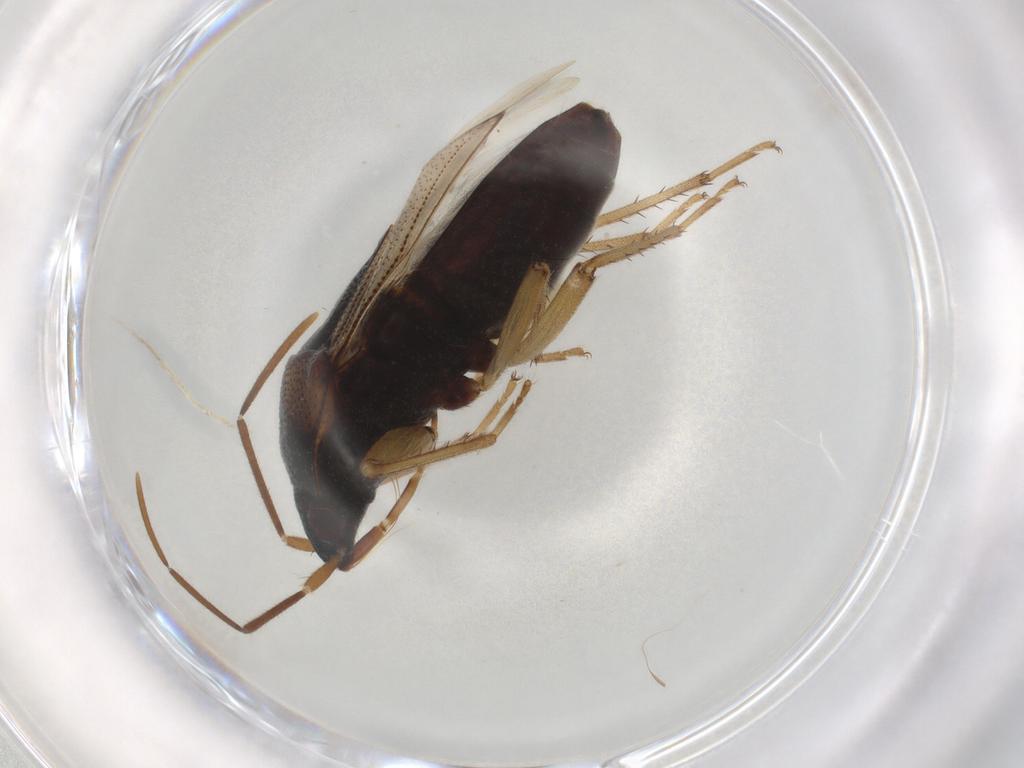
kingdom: Animalia
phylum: Arthropoda
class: Insecta
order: Hemiptera
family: Rhyparochromidae
